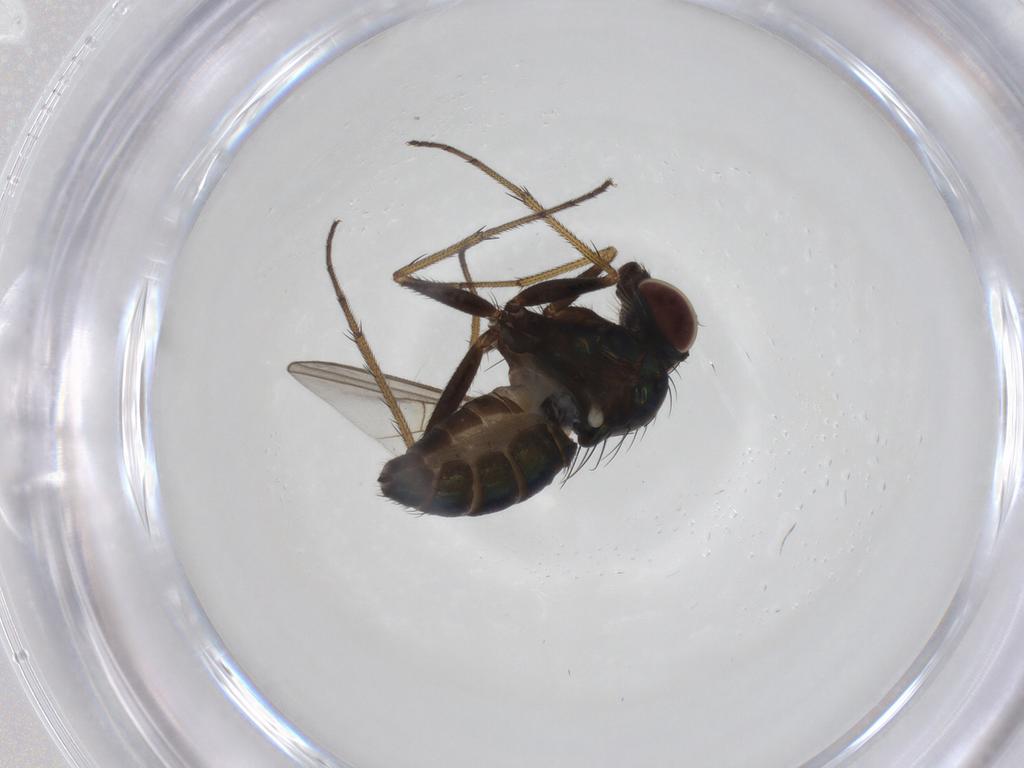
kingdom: Animalia
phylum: Arthropoda
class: Insecta
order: Diptera
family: Dolichopodidae
